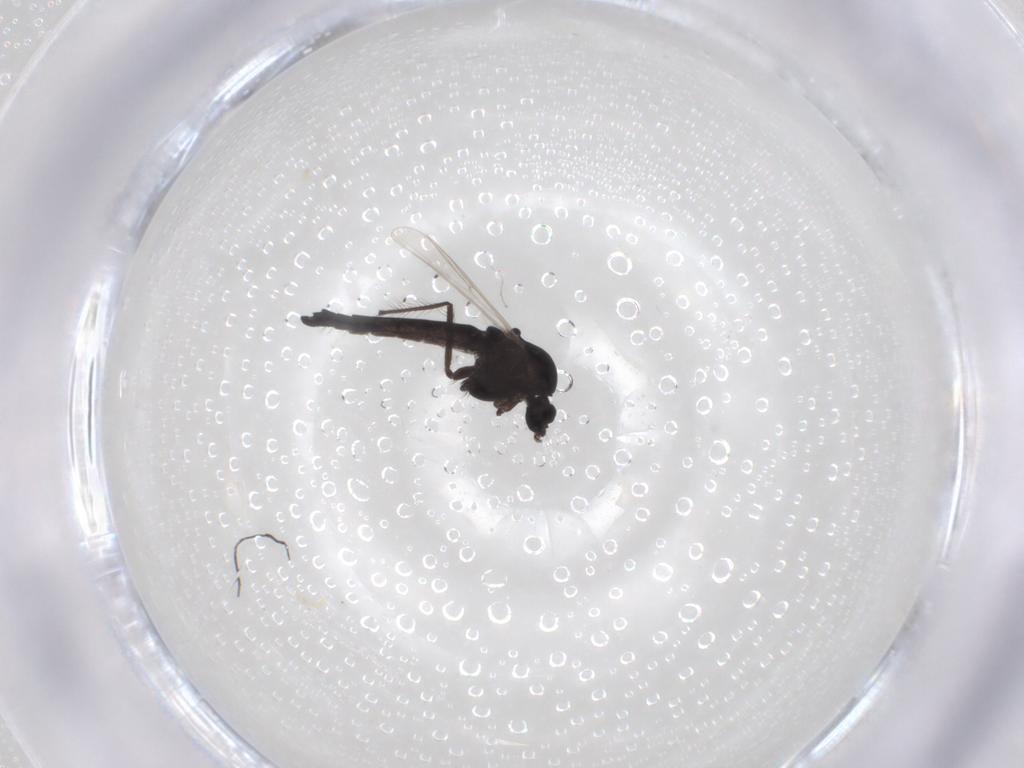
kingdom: Animalia
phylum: Arthropoda
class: Insecta
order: Diptera
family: Chironomidae
